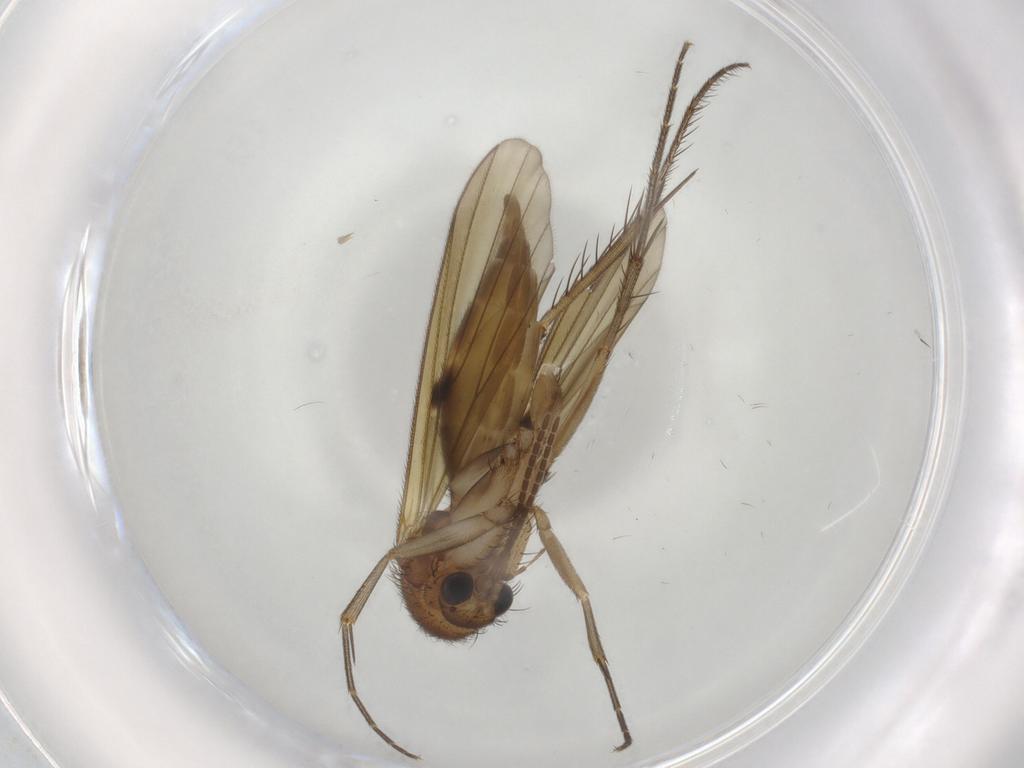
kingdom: Animalia
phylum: Arthropoda
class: Insecta
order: Diptera
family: Mycetophilidae
